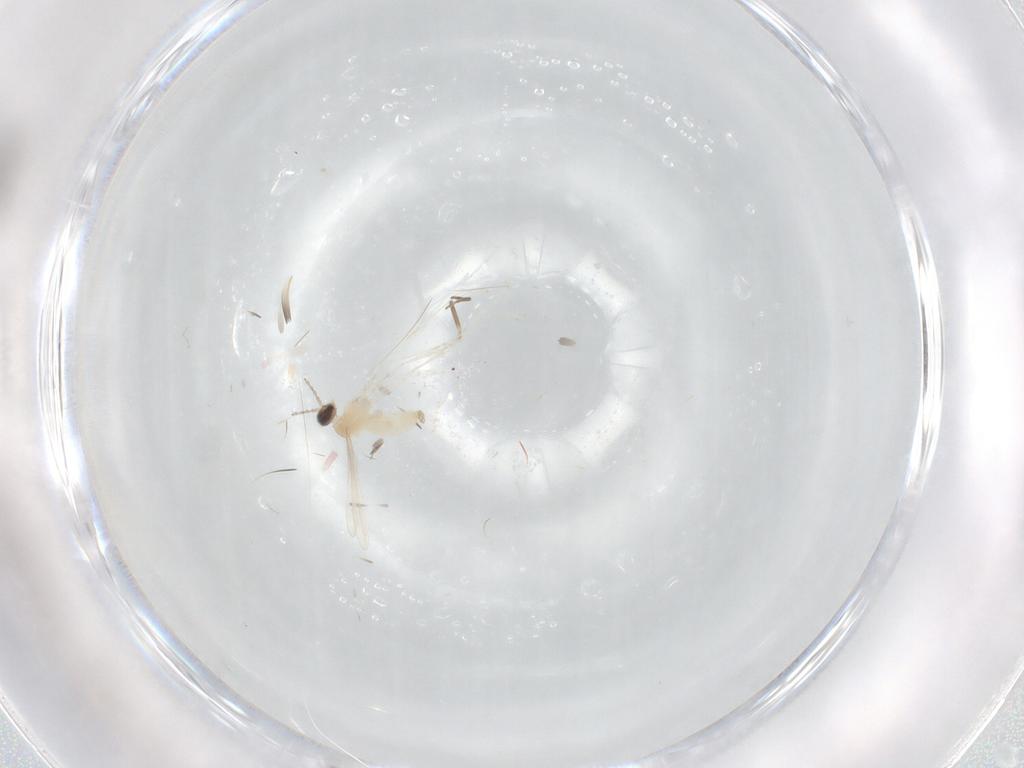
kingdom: Animalia
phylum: Arthropoda
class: Insecta
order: Diptera
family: Cecidomyiidae
